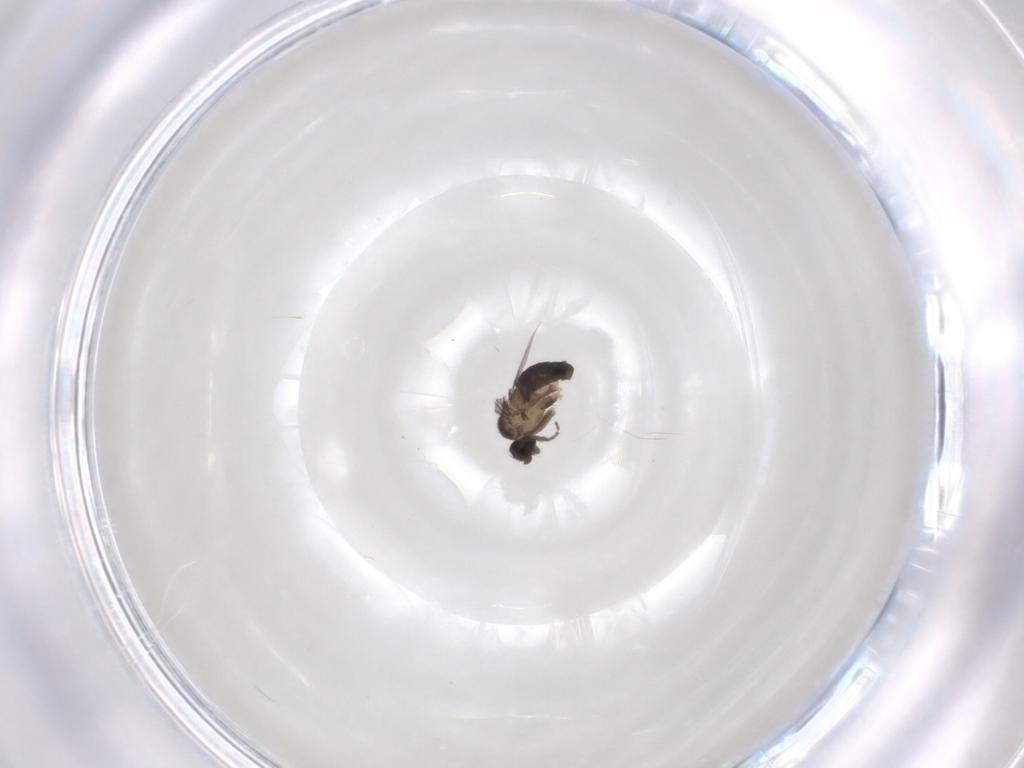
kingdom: Animalia
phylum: Arthropoda
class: Insecta
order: Diptera
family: Phoridae
